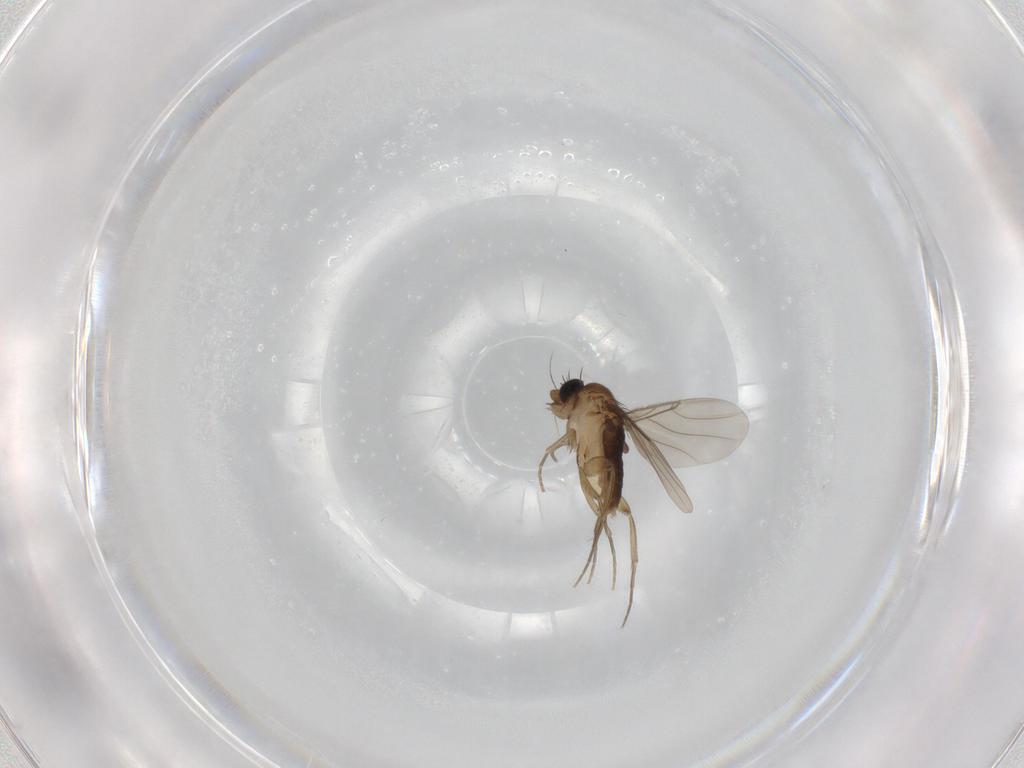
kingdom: Animalia
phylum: Arthropoda
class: Insecta
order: Diptera
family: Phoridae
